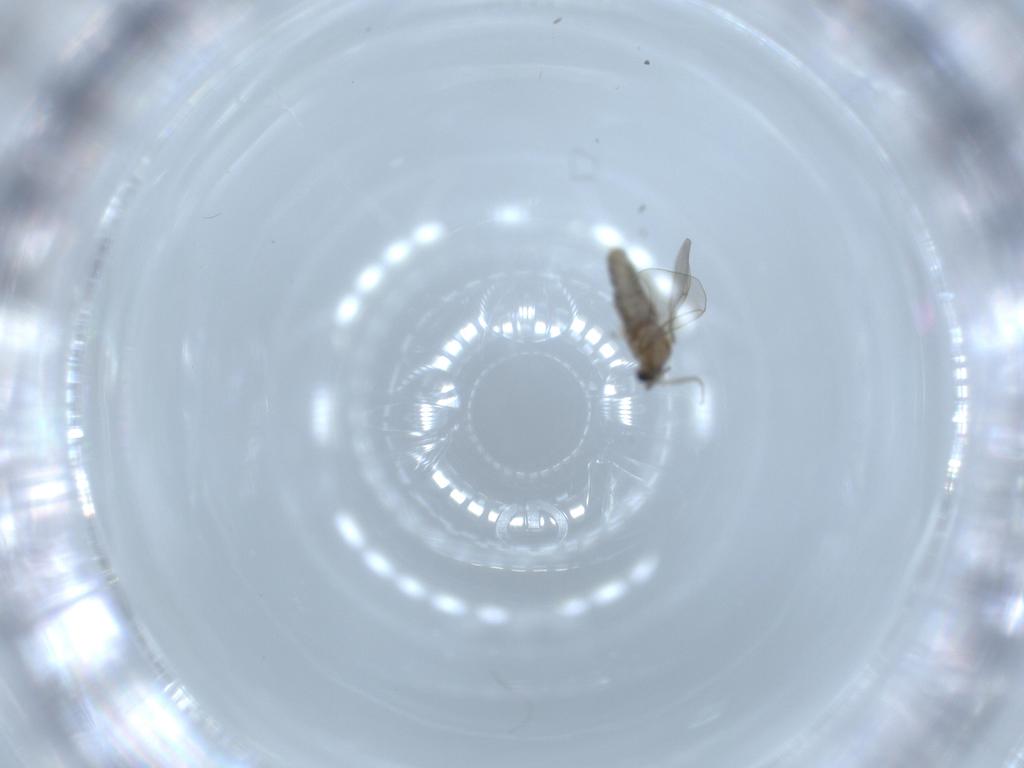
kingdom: Animalia
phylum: Arthropoda
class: Insecta
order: Diptera
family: Cecidomyiidae
